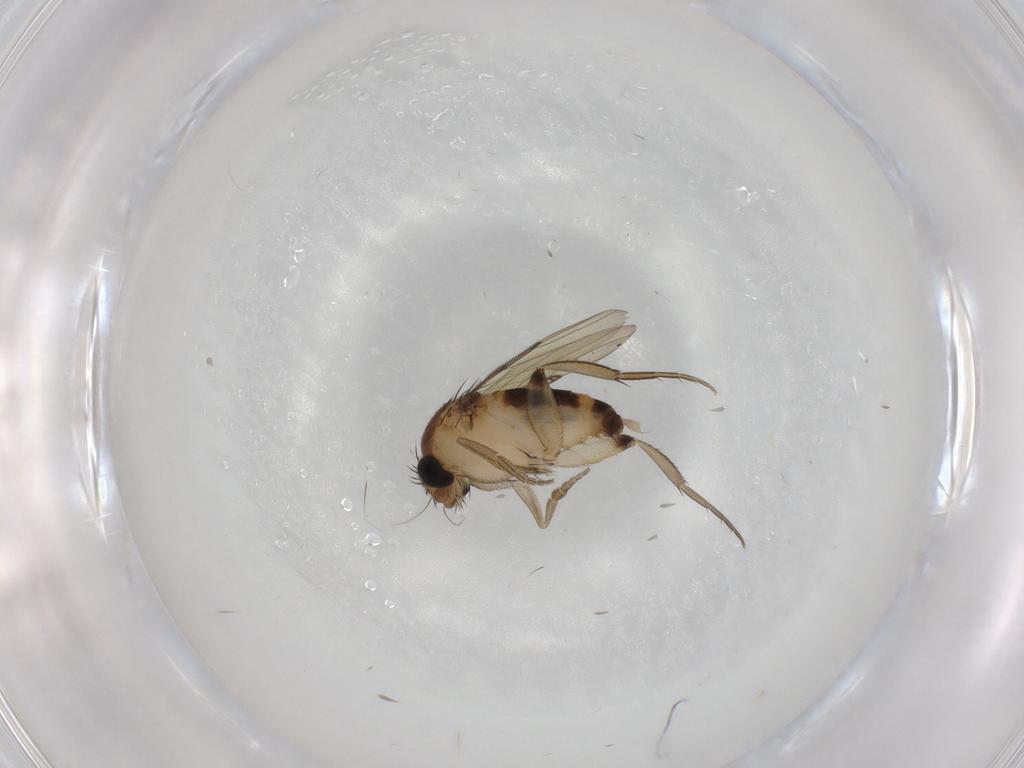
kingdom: Animalia
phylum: Arthropoda
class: Insecta
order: Diptera
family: Phoridae
